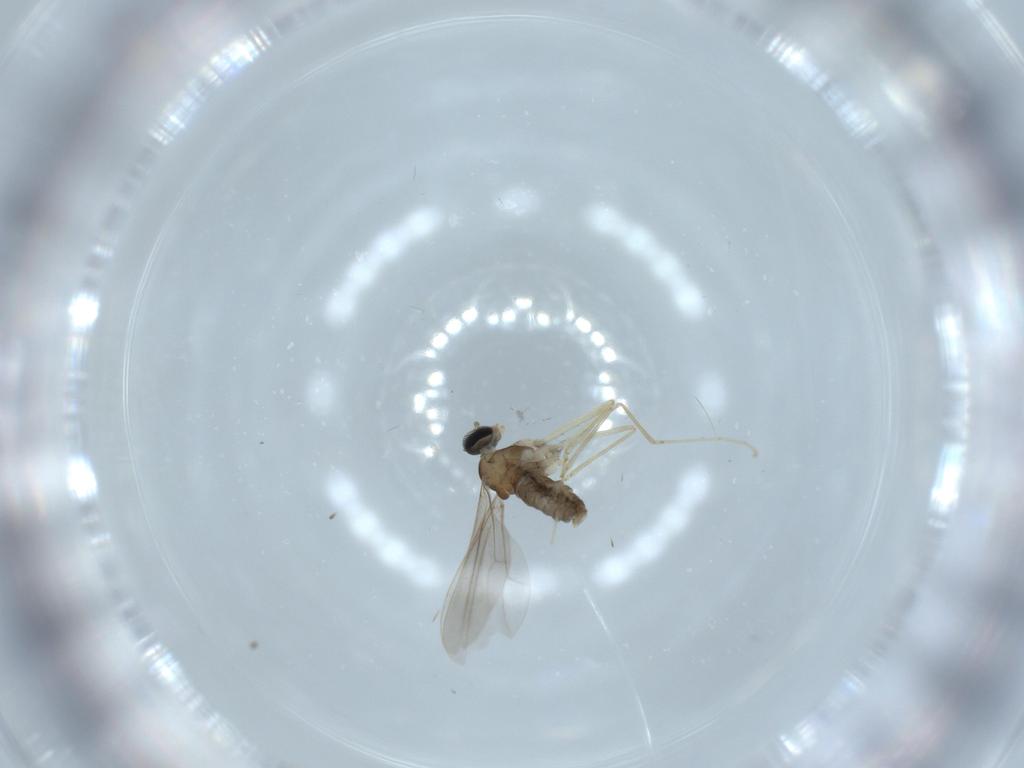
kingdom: Animalia
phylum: Arthropoda
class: Insecta
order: Diptera
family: Cecidomyiidae
